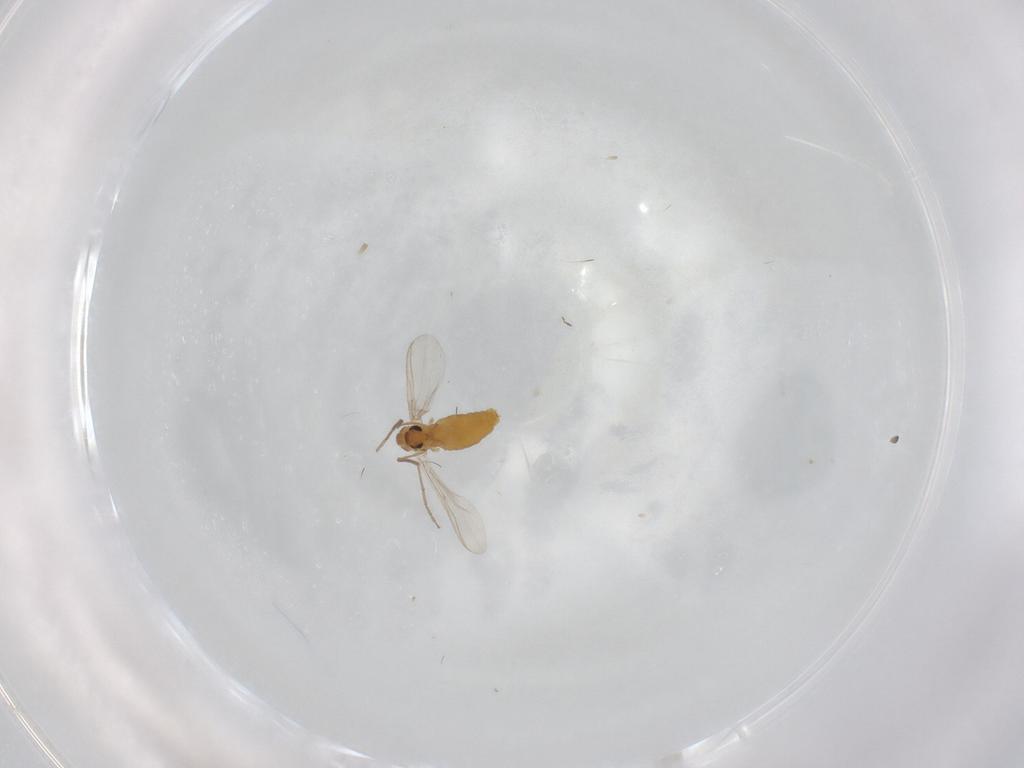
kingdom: Animalia
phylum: Arthropoda
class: Insecta
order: Diptera
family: Chironomidae
